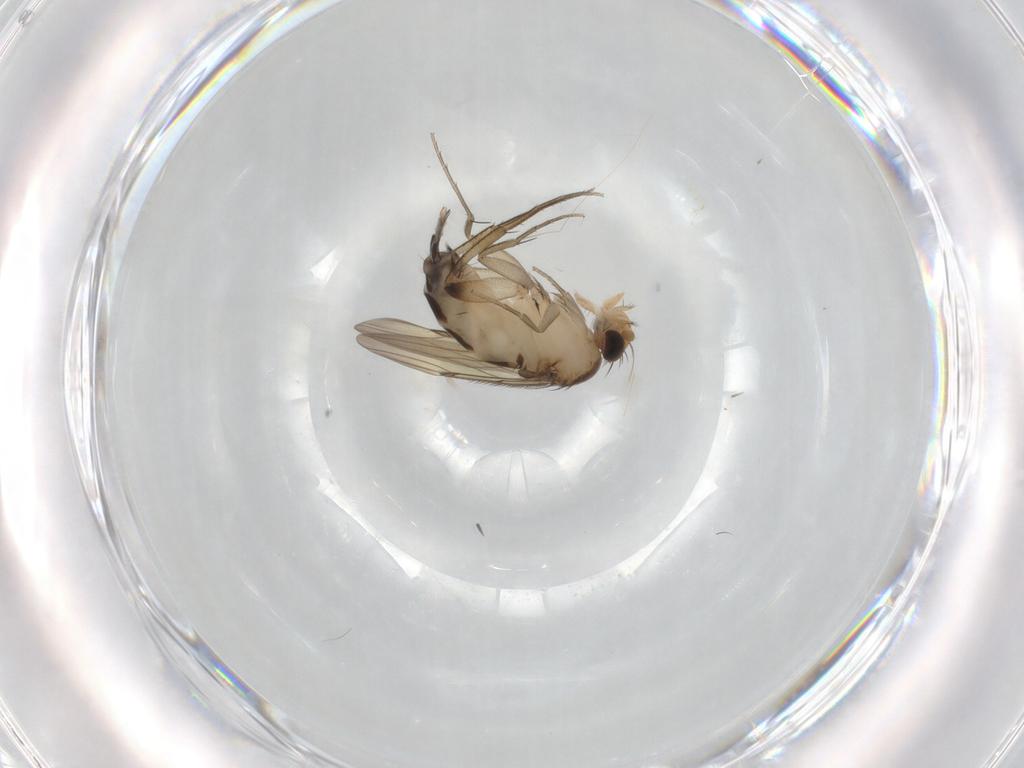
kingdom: Animalia
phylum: Arthropoda
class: Insecta
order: Diptera
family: Phoridae
